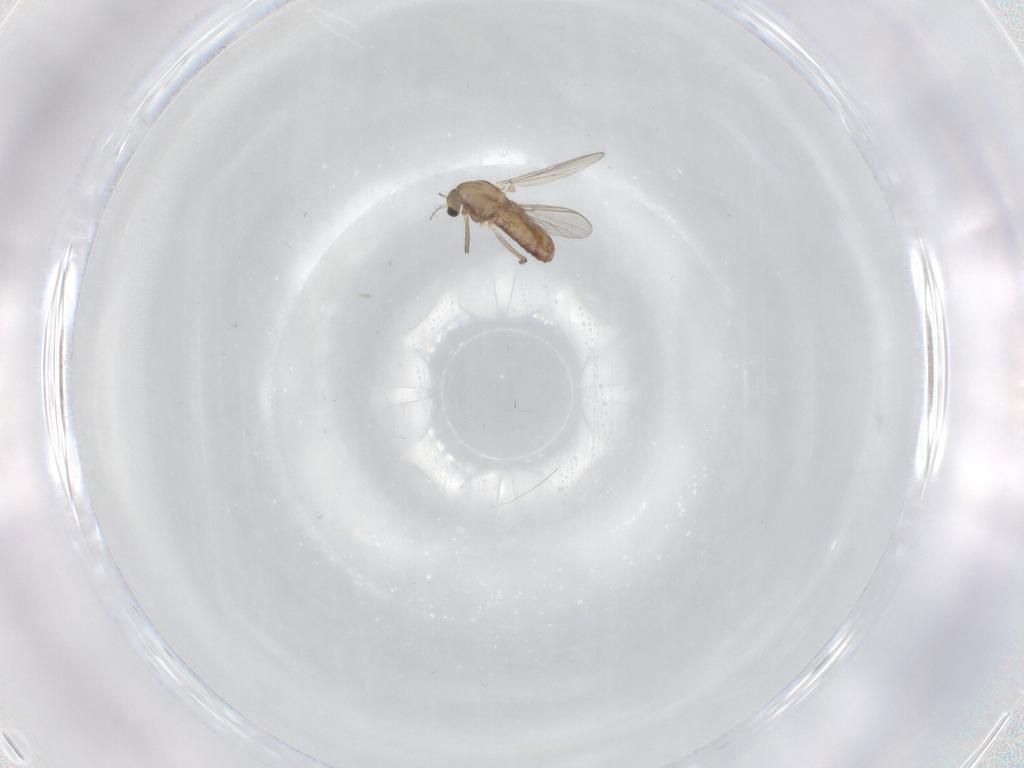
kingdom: Animalia
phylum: Arthropoda
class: Insecta
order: Diptera
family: Chironomidae
